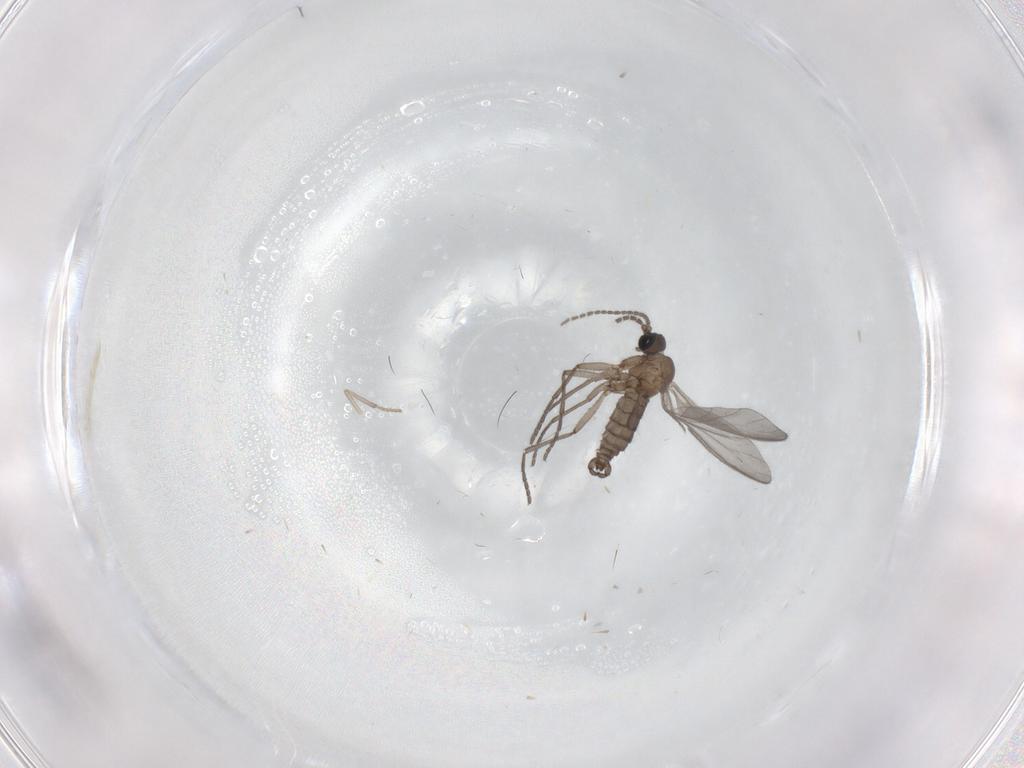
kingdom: Animalia
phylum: Arthropoda
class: Insecta
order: Diptera
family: Sciaridae
